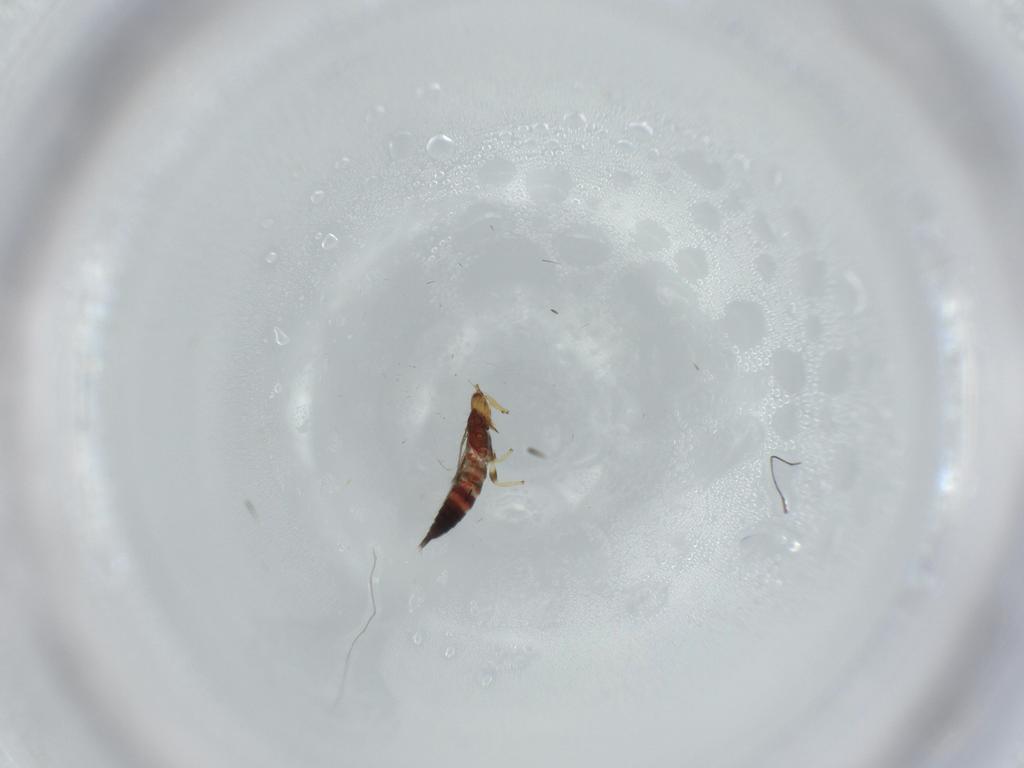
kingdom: Animalia
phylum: Arthropoda
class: Insecta
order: Thysanoptera
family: Phlaeothripidae
